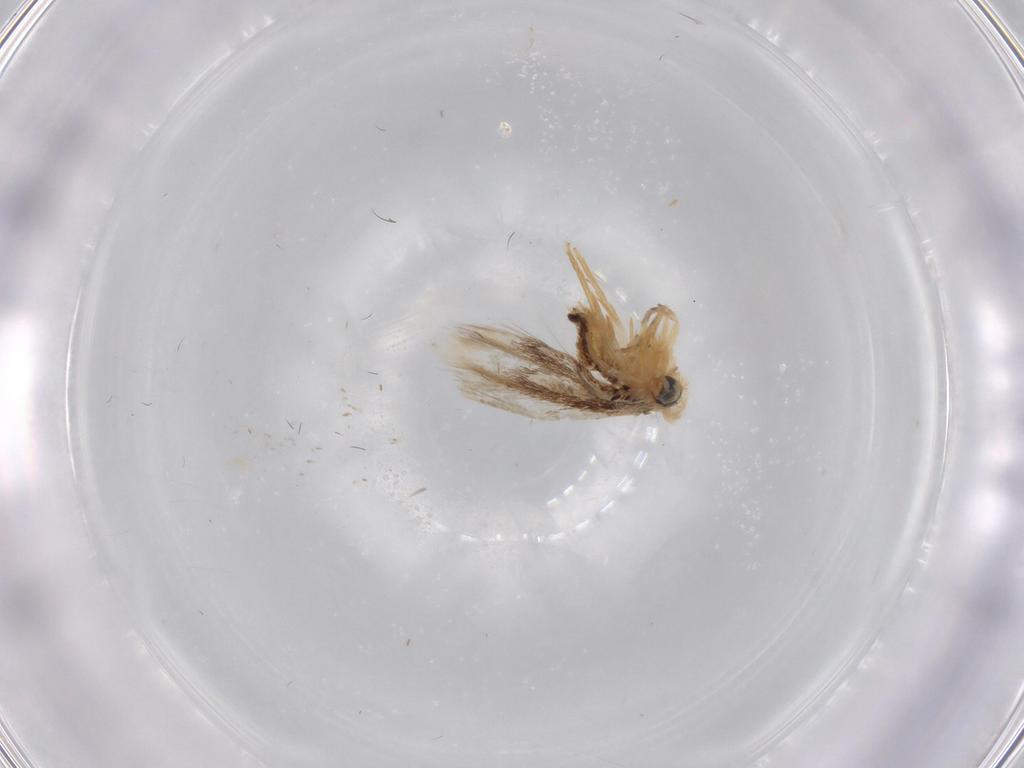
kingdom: Animalia
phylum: Arthropoda
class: Insecta
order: Lepidoptera
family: Nepticulidae
